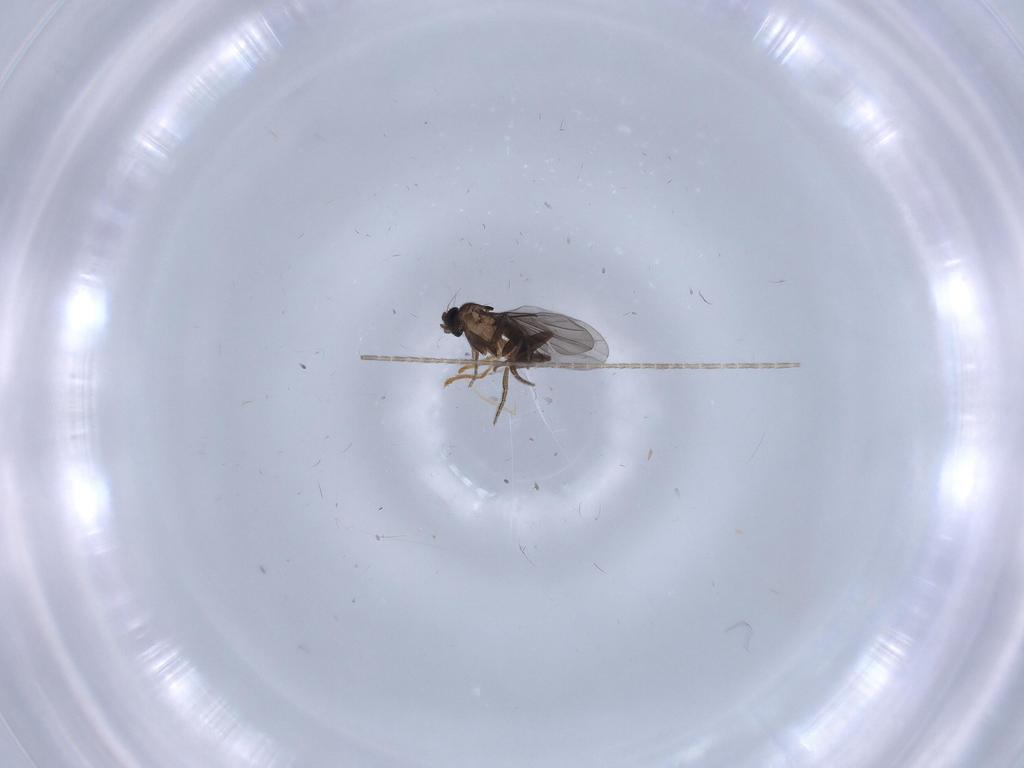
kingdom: Animalia
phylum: Arthropoda
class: Insecta
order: Diptera
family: Phoridae
